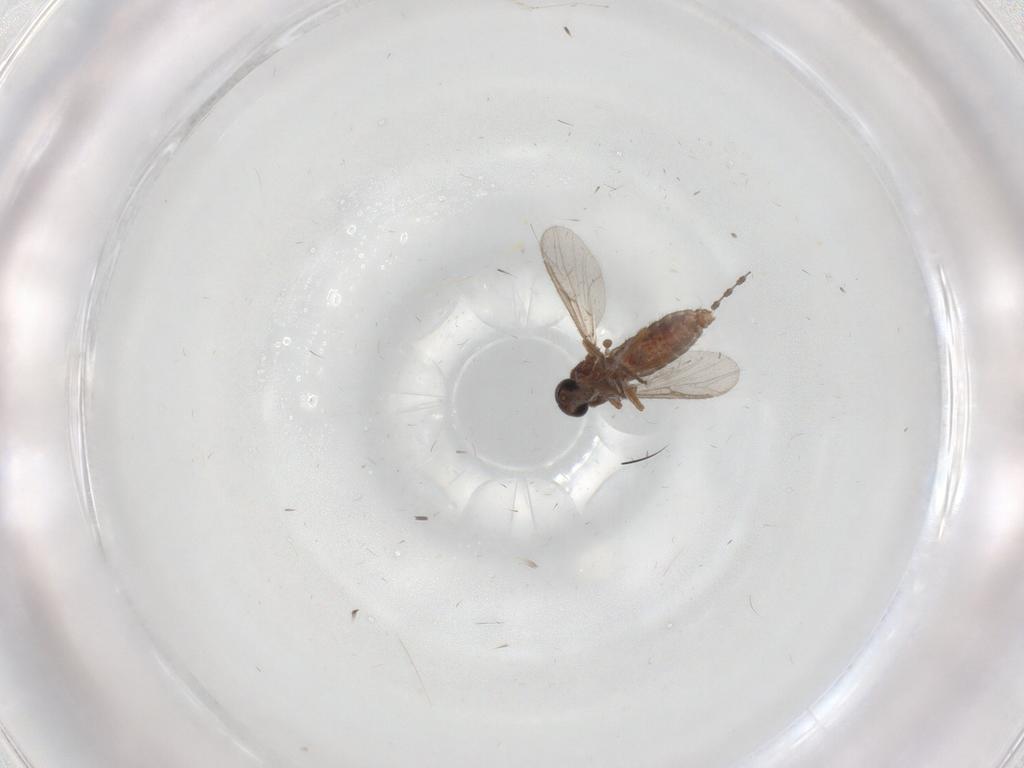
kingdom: Animalia
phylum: Arthropoda
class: Insecta
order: Diptera
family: Cecidomyiidae
